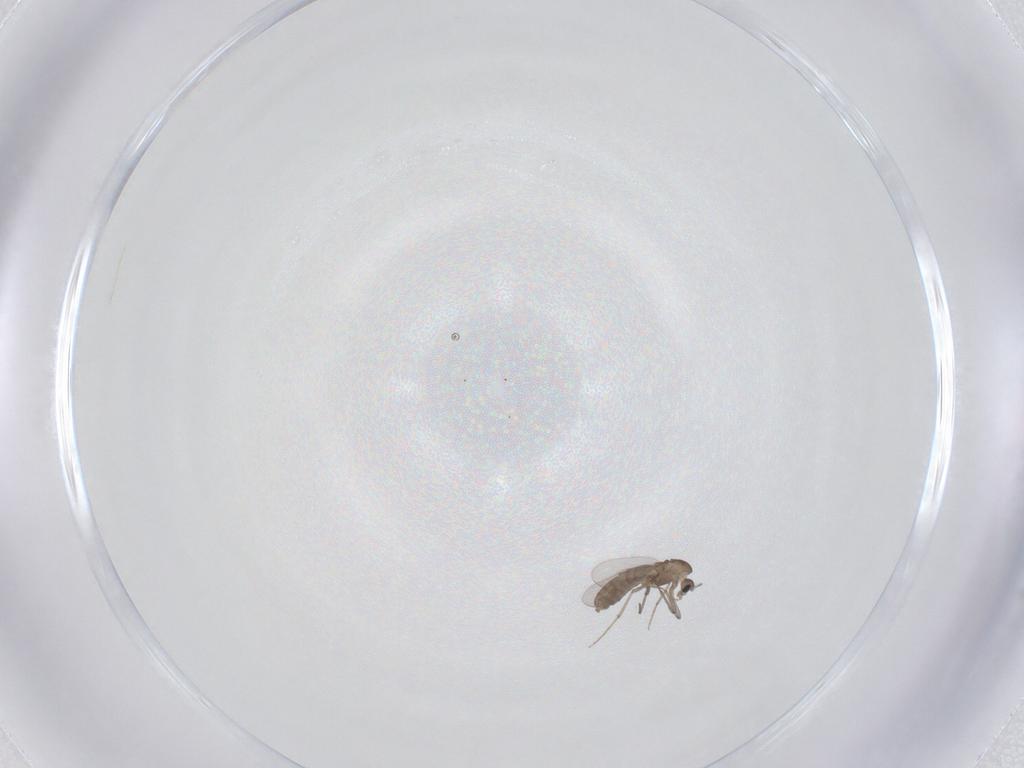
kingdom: Animalia
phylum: Arthropoda
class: Insecta
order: Diptera
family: Chironomidae
